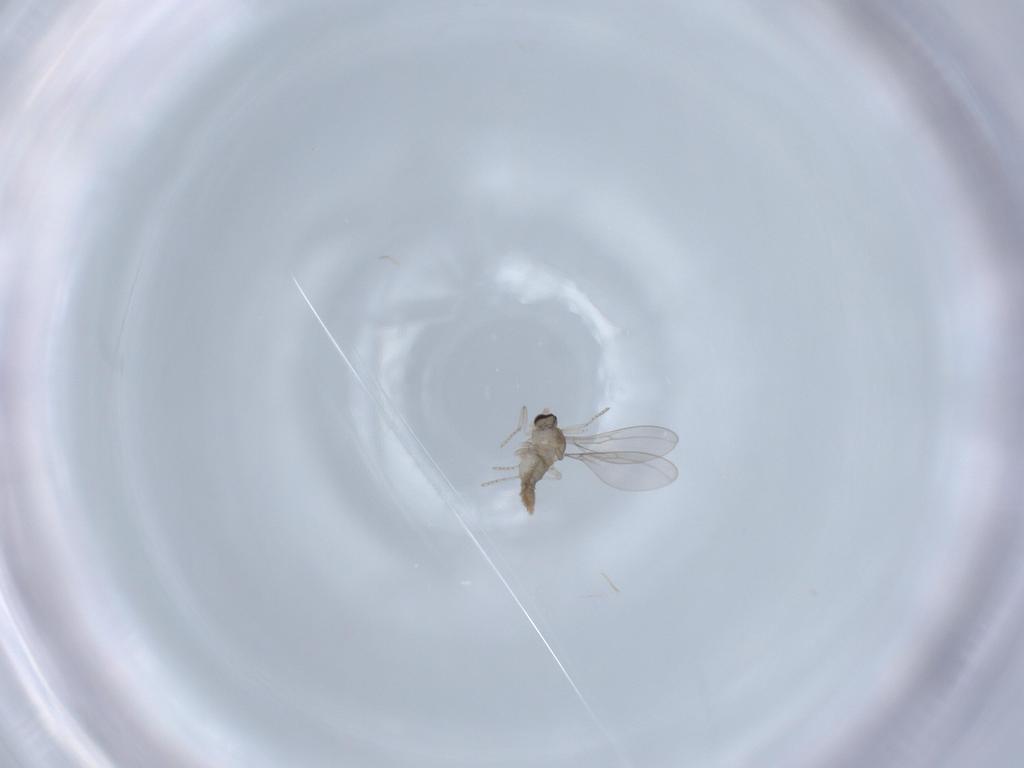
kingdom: Animalia
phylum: Arthropoda
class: Insecta
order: Diptera
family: Cecidomyiidae
